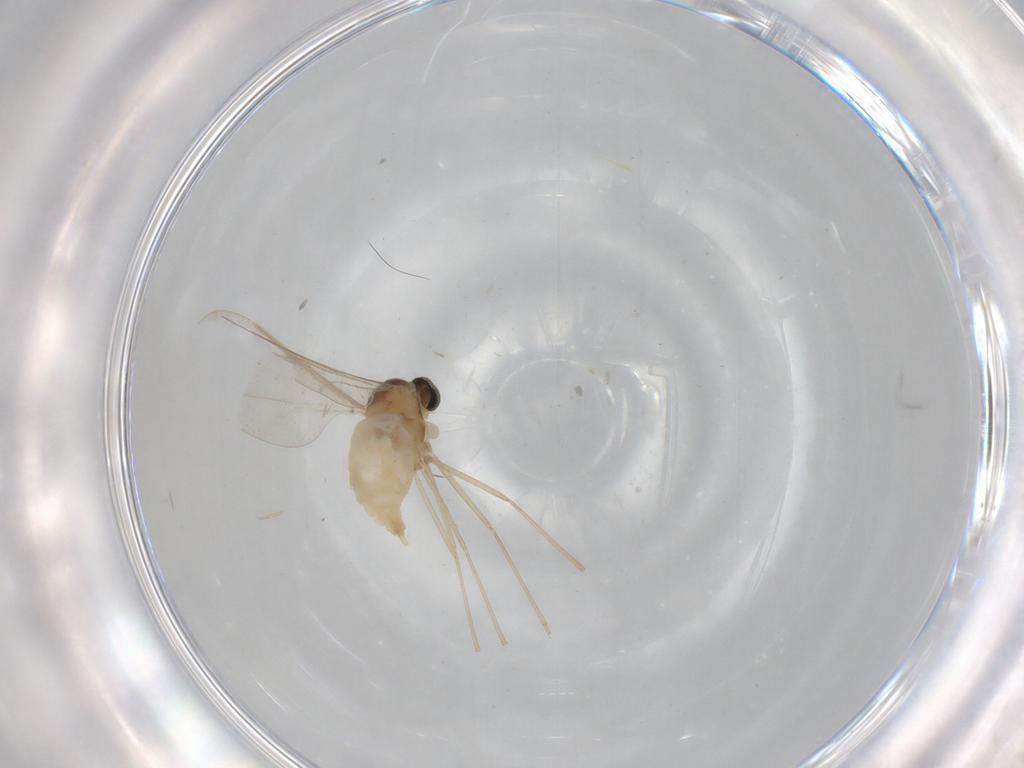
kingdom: Animalia
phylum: Arthropoda
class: Insecta
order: Diptera
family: Cecidomyiidae
